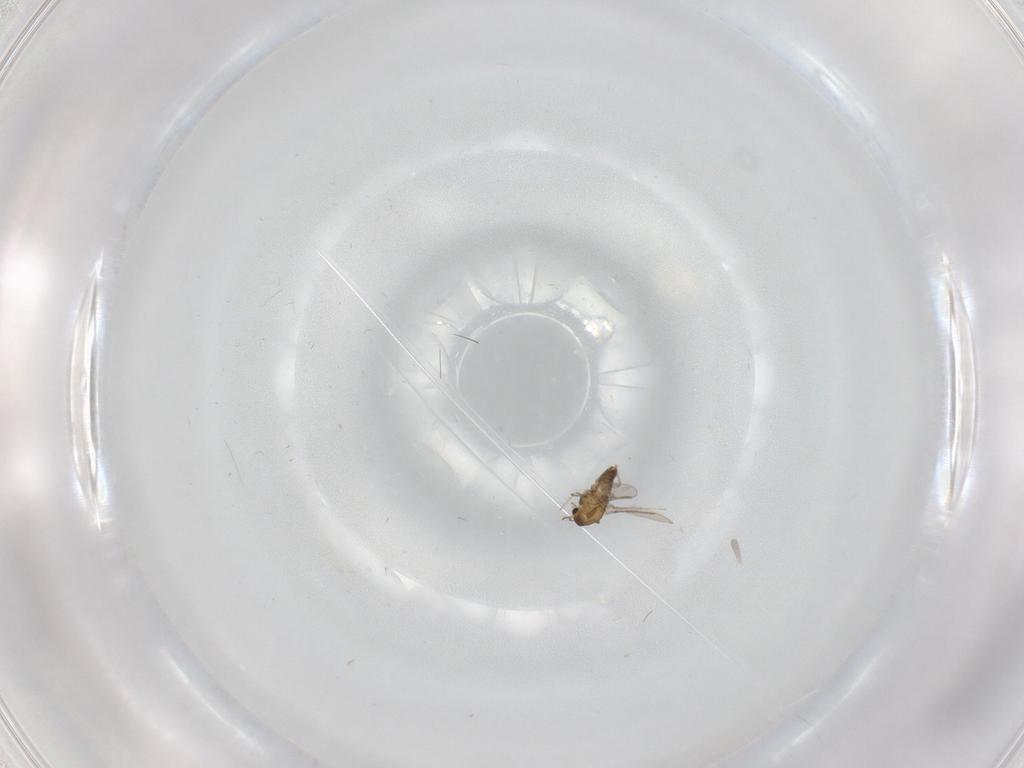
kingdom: Animalia
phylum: Arthropoda
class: Insecta
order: Diptera
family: Chironomidae
